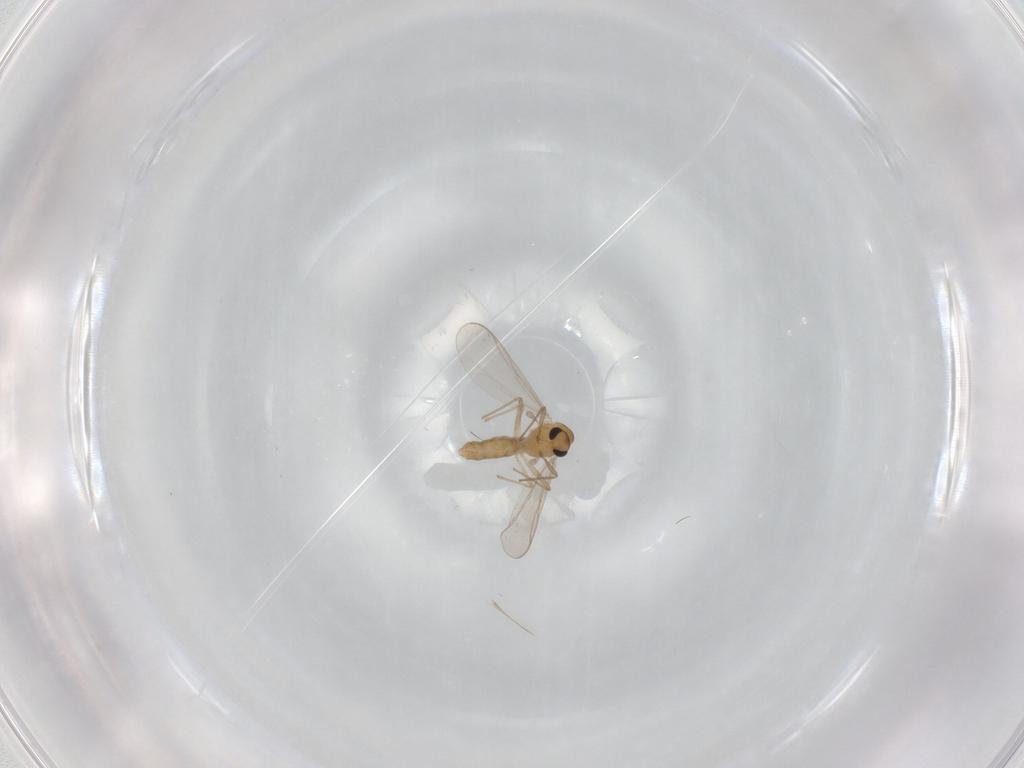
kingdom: Animalia
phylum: Arthropoda
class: Insecta
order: Diptera
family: Chironomidae
